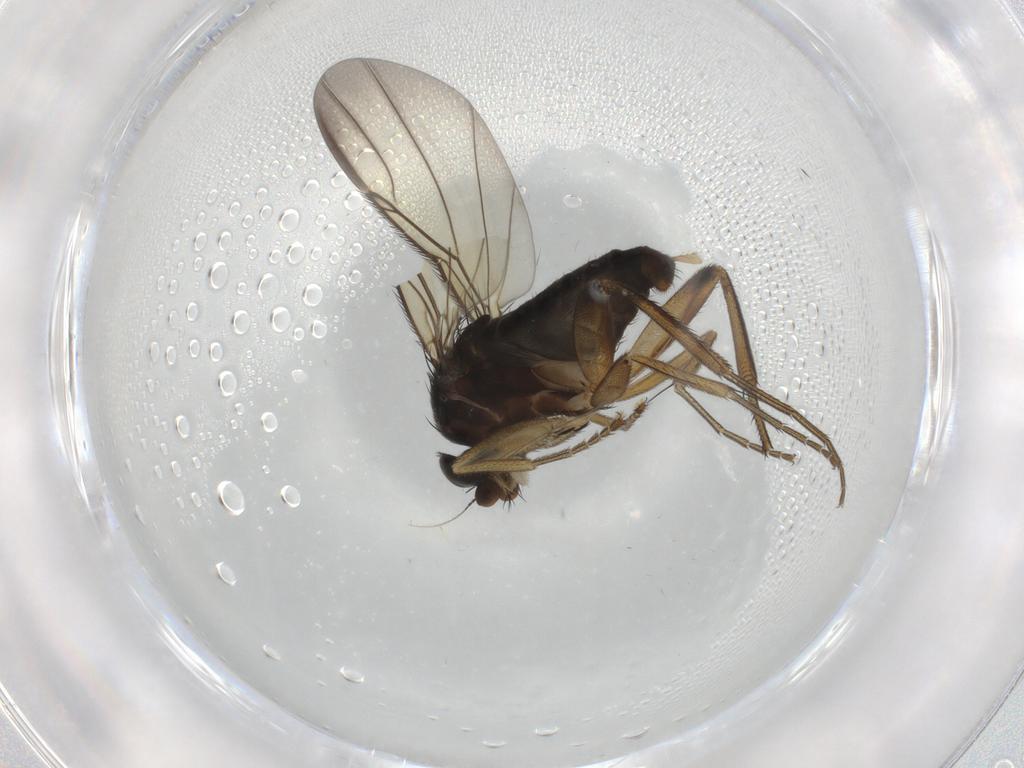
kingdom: Animalia
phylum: Arthropoda
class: Insecta
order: Diptera
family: Phoridae
